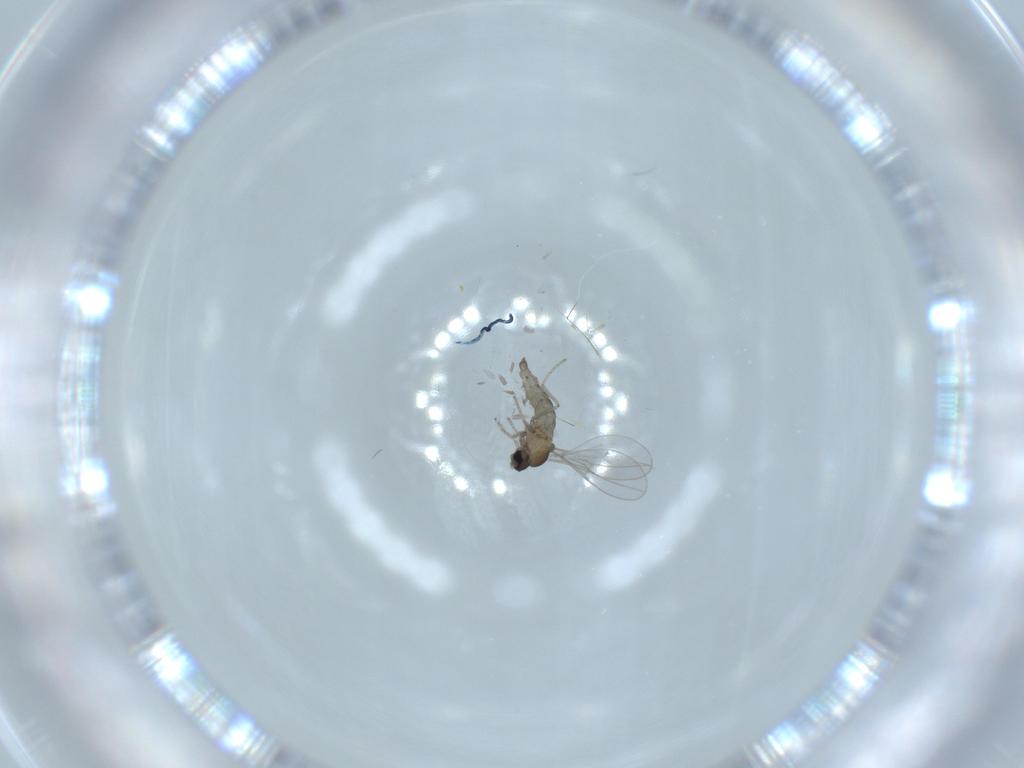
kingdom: Animalia
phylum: Arthropoda
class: Insecta
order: Diptera
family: Cecidomyiidae
